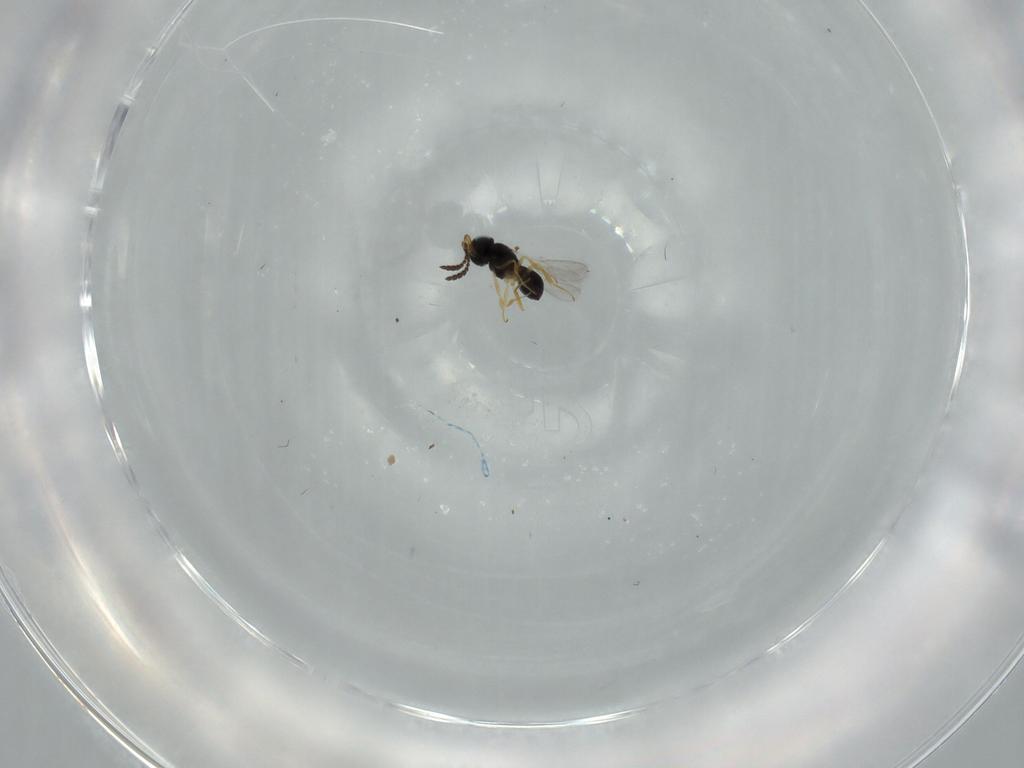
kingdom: Animalia
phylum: Arthropoda
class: Insecta
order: Hymenoptera
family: Scelionidae
